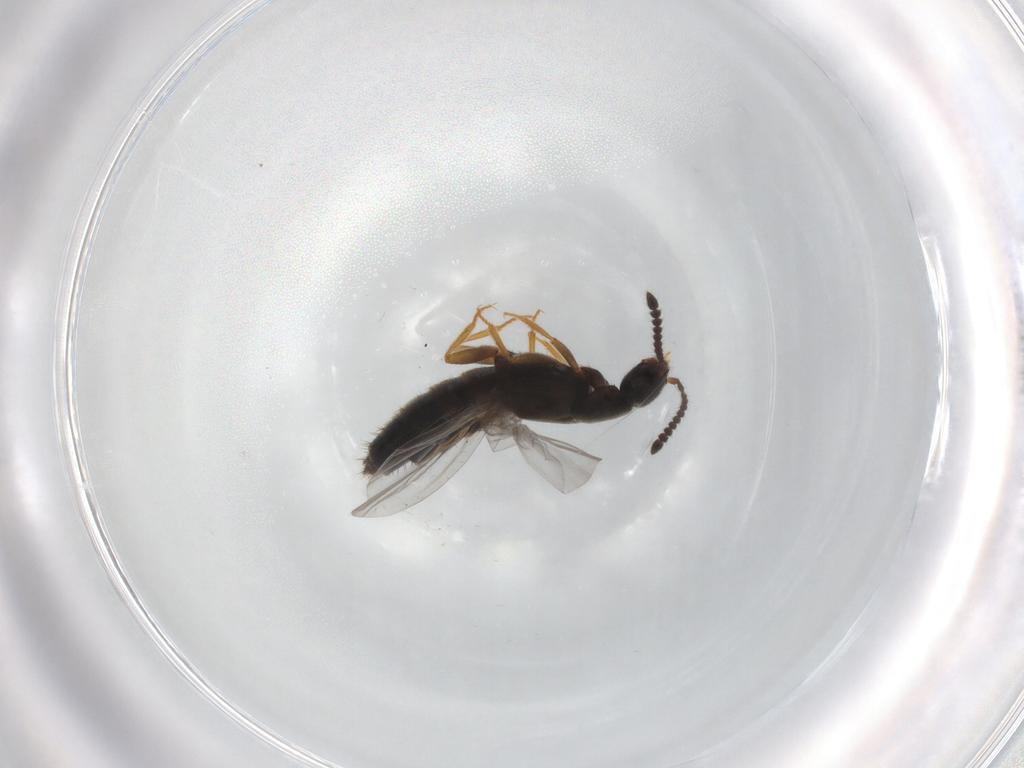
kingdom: Animalia
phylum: Arthropoda
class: Insecta
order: Coleoptera
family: Staphylinidae
